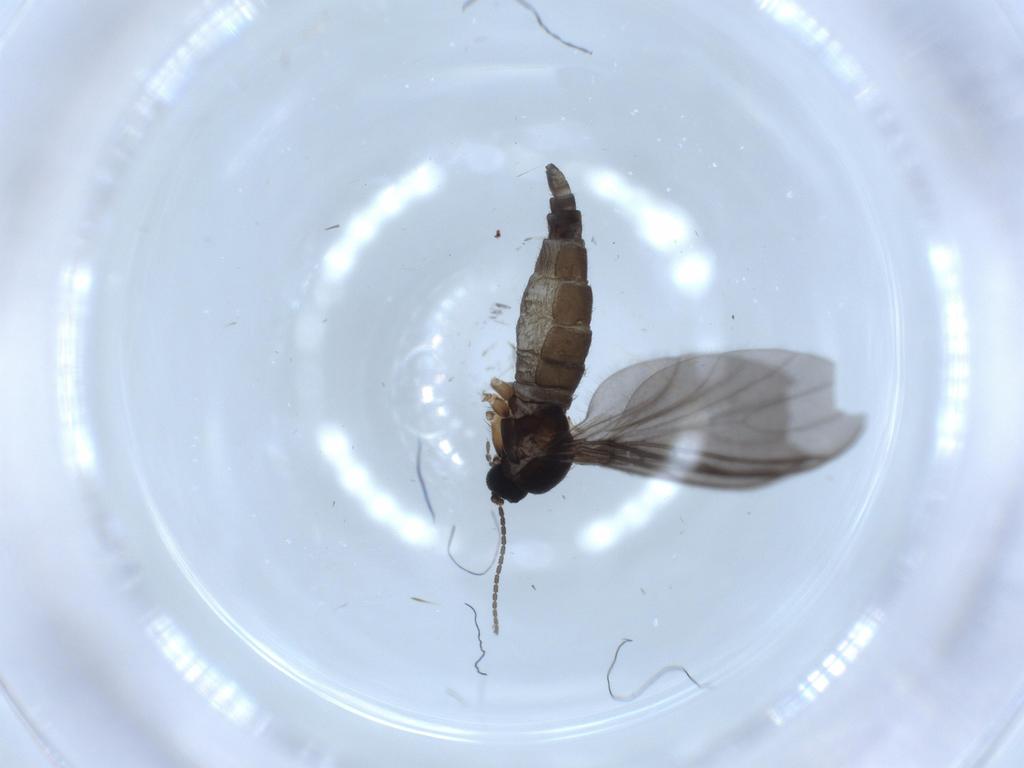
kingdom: Animalia
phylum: Arthropoda
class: Insecta
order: Diptera
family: Sciaridae
